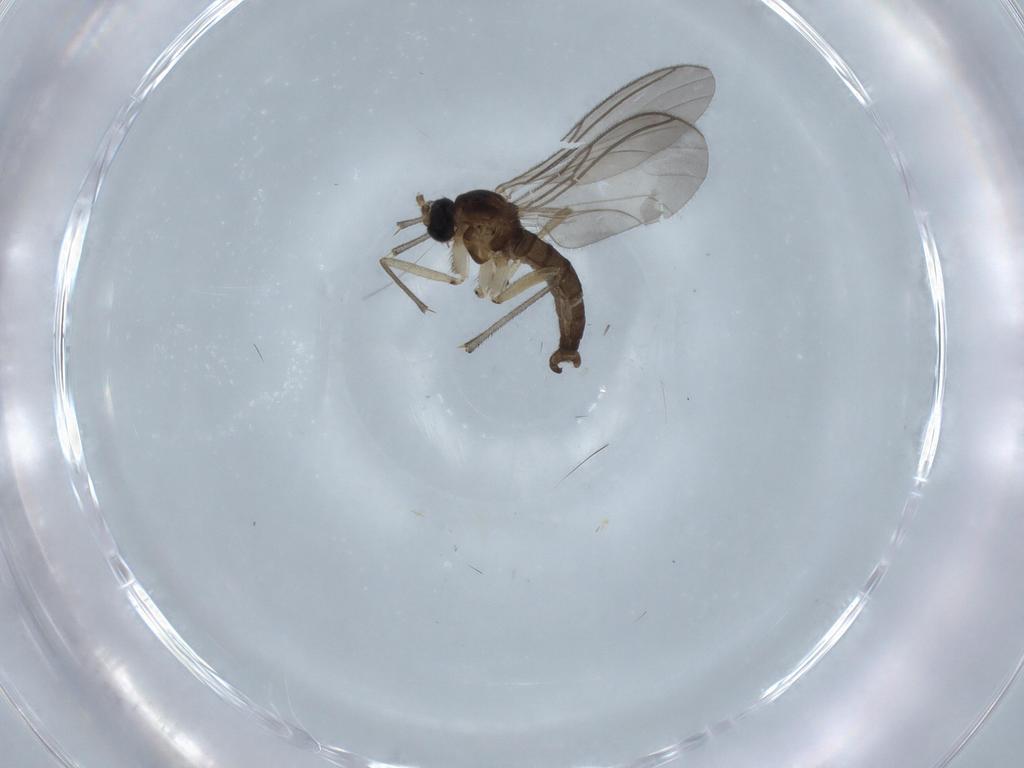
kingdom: Animalia
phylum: Arthropoda
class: Insecta
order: Diptera
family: Sciaridae
